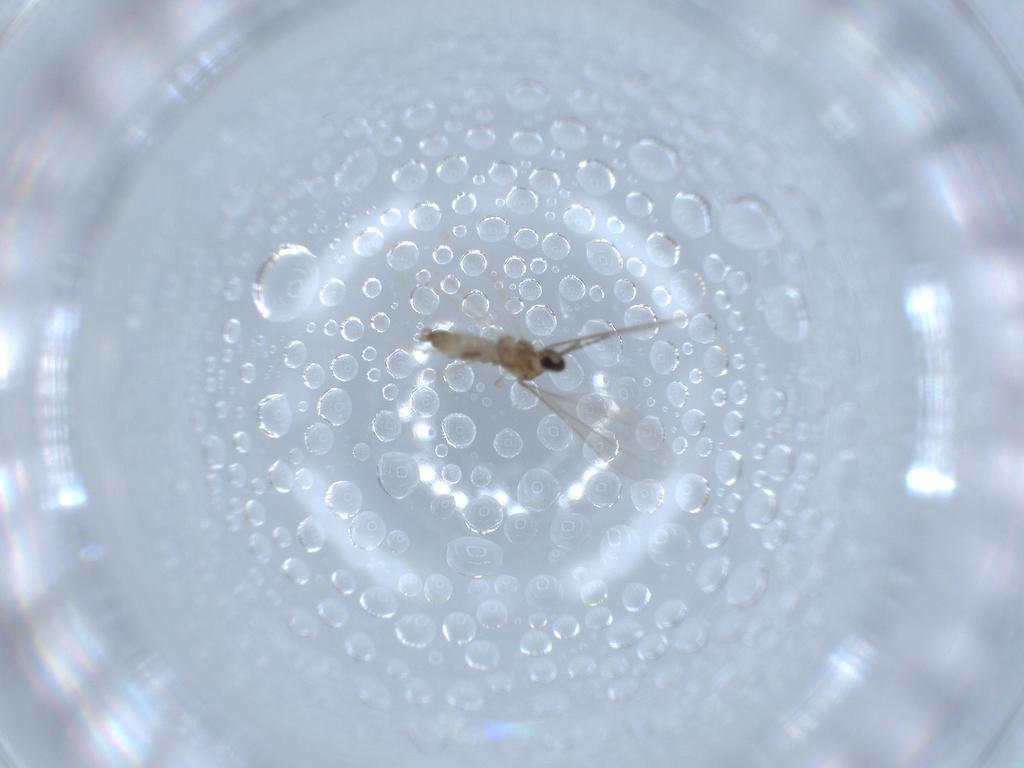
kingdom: Animalia
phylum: Arthropoda
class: Insecta
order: Diptera
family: Cecidomyiidae
